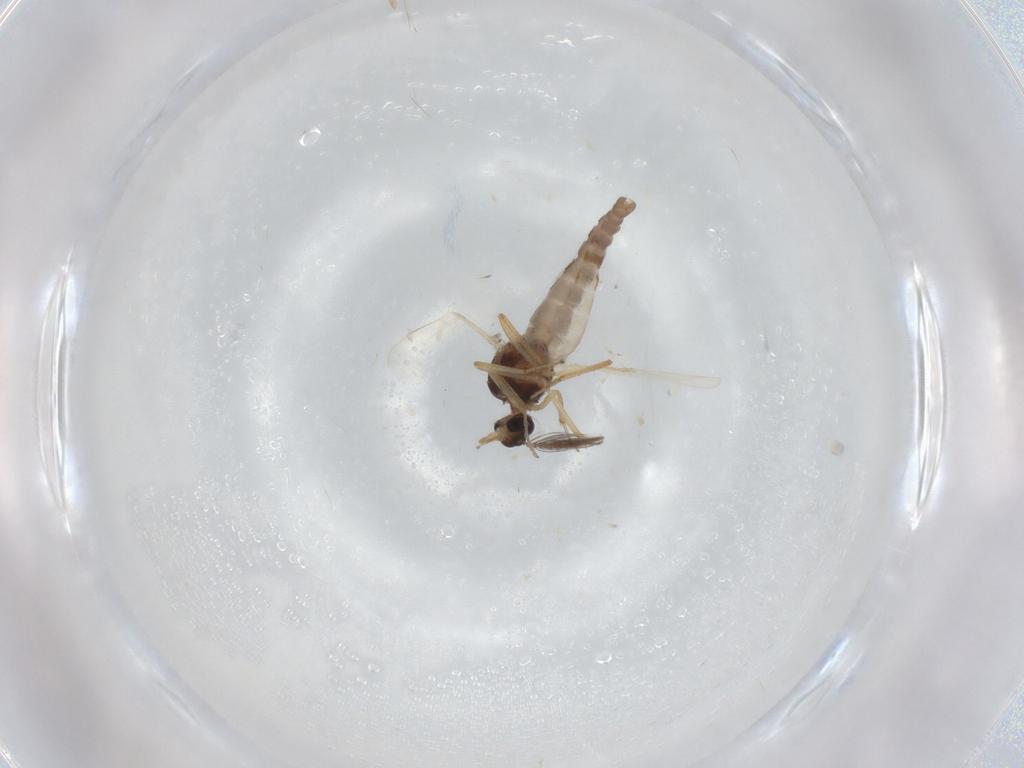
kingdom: Animalia
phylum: Arthropoda
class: Insecta
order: Diptera
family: Ceratopogonidae
